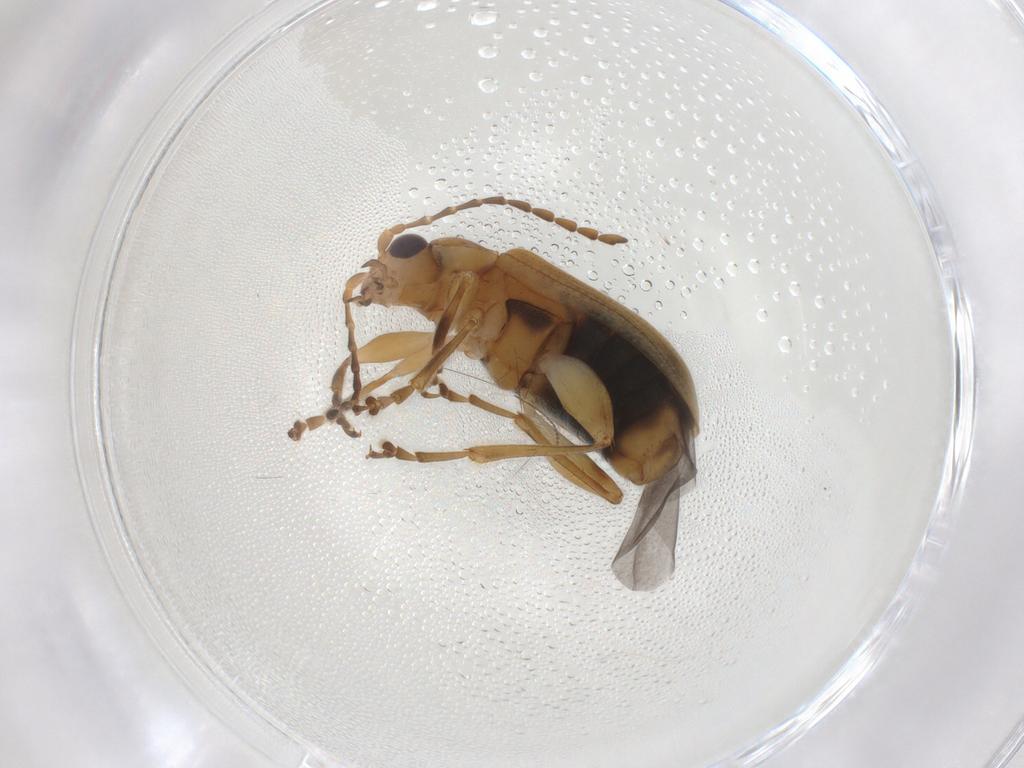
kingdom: Animalia
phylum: Arthropoda
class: Insecta
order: Coleoptera
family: Chrysomelidae
